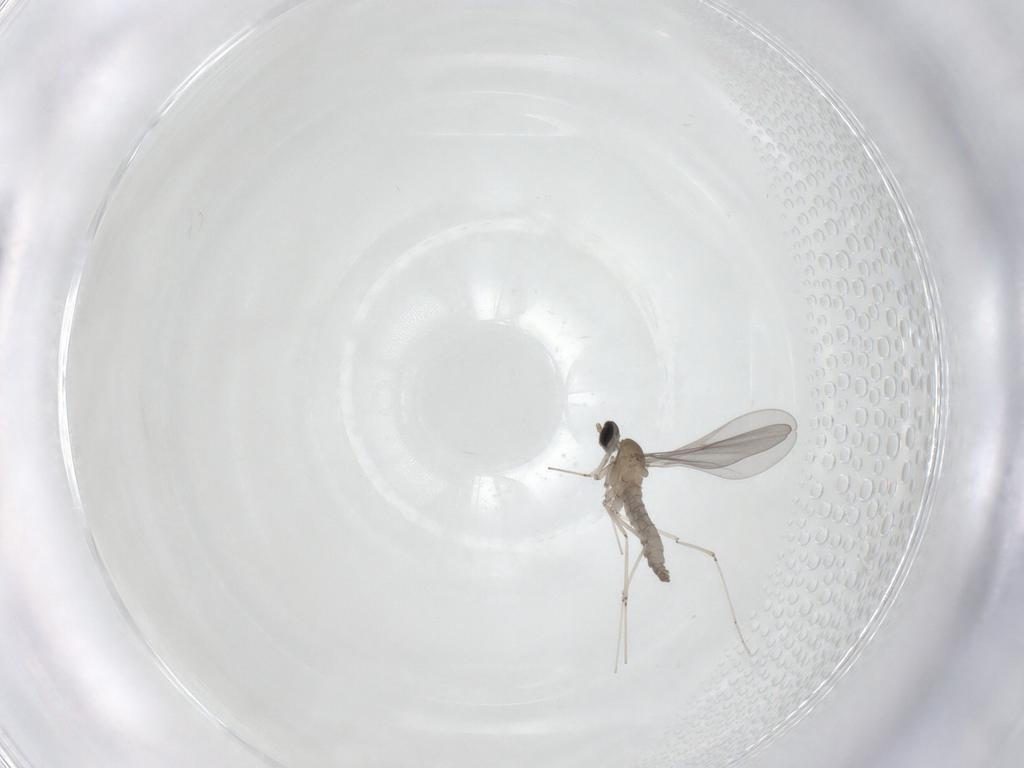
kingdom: Animalia
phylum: Arthropoda
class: Insecta
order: Diptera
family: Cecidomyiidae
